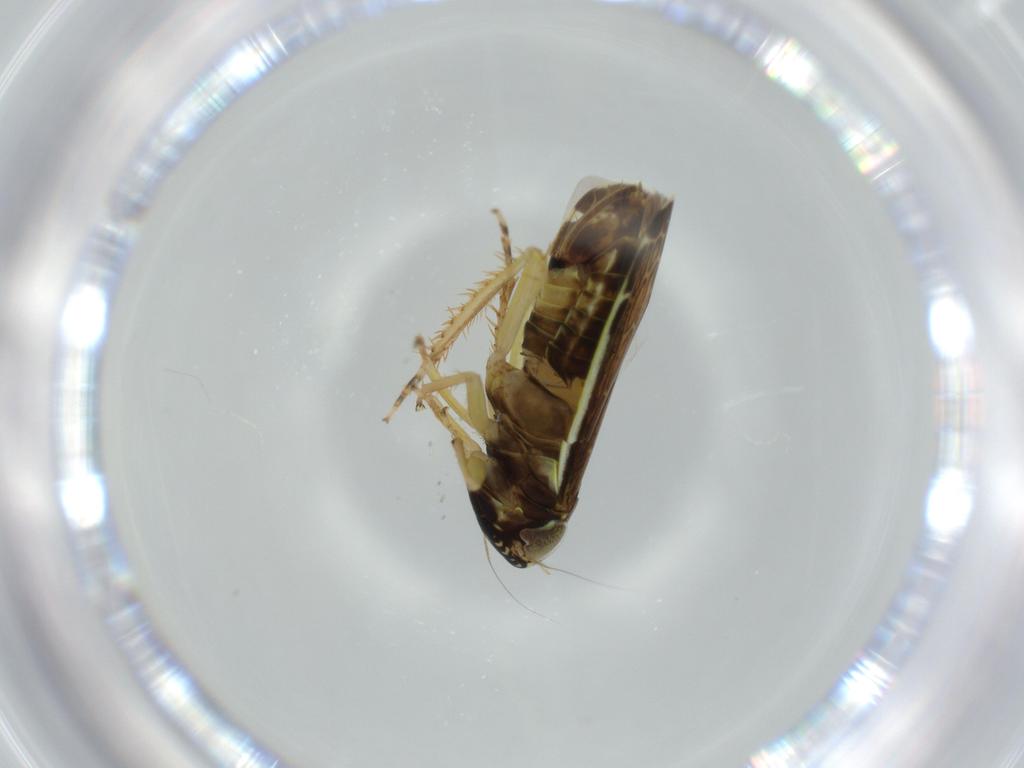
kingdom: Animalia
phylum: Arthropoda
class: Insecta
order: Hemiptera
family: Cicadellidae
